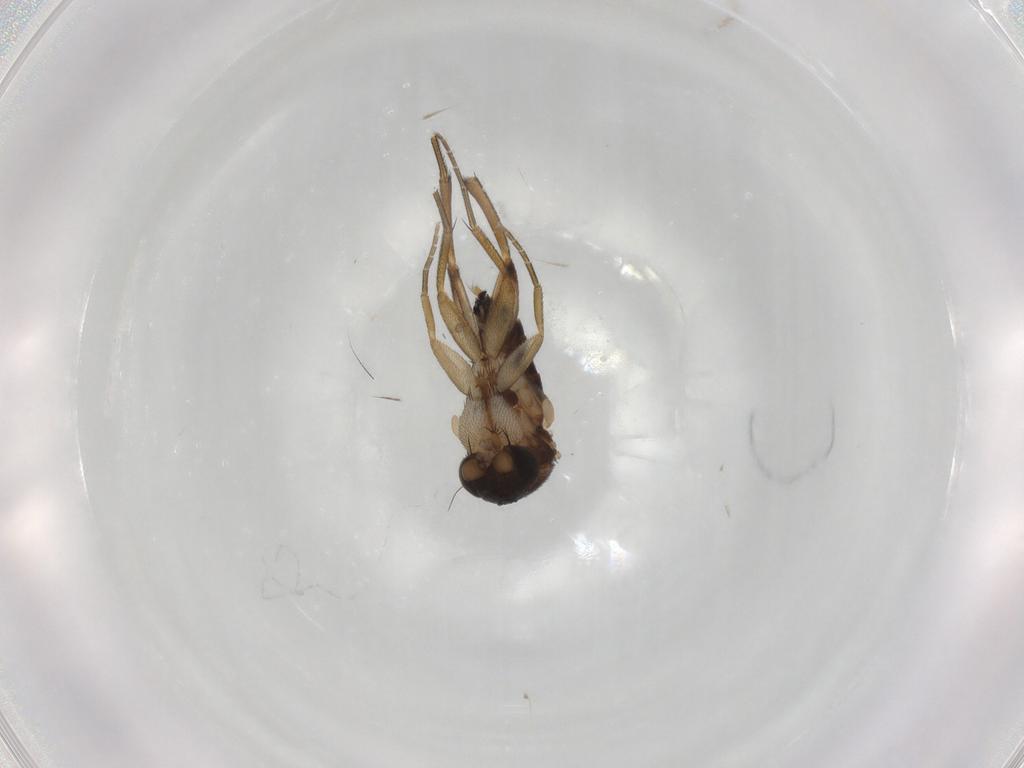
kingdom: Animalia
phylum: Arthropoda
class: Insecta
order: Diptera
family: Phoridae
